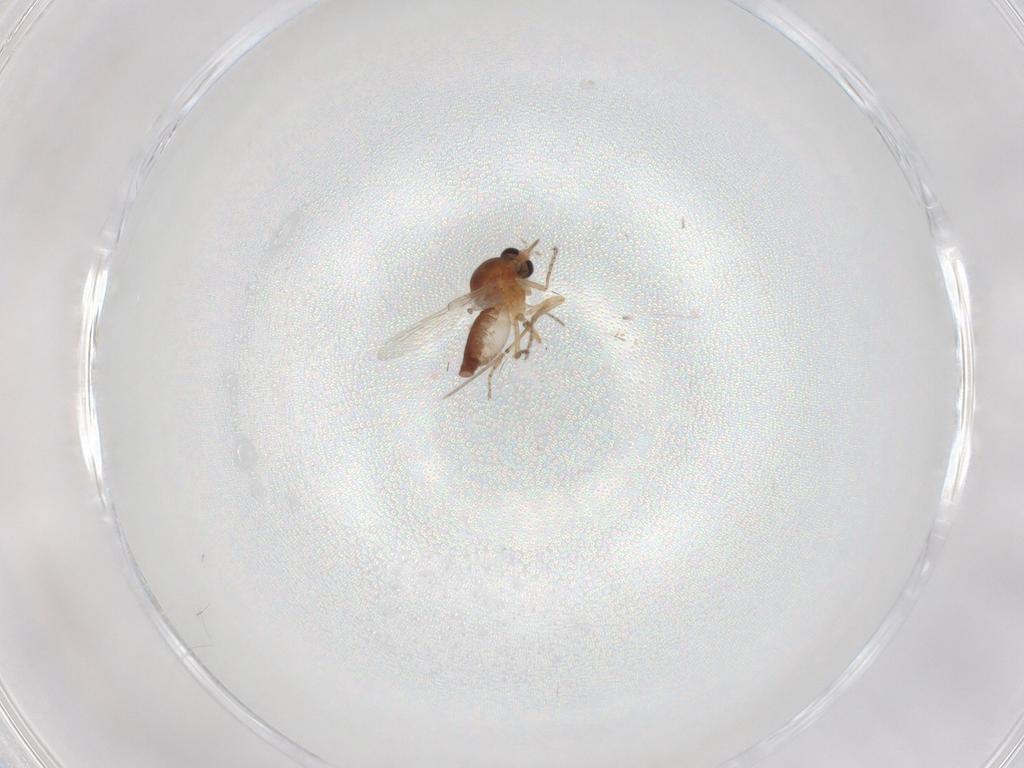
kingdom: Animalia
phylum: Arthropoda
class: Insecta
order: Diptera
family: Ceratopogonidae
